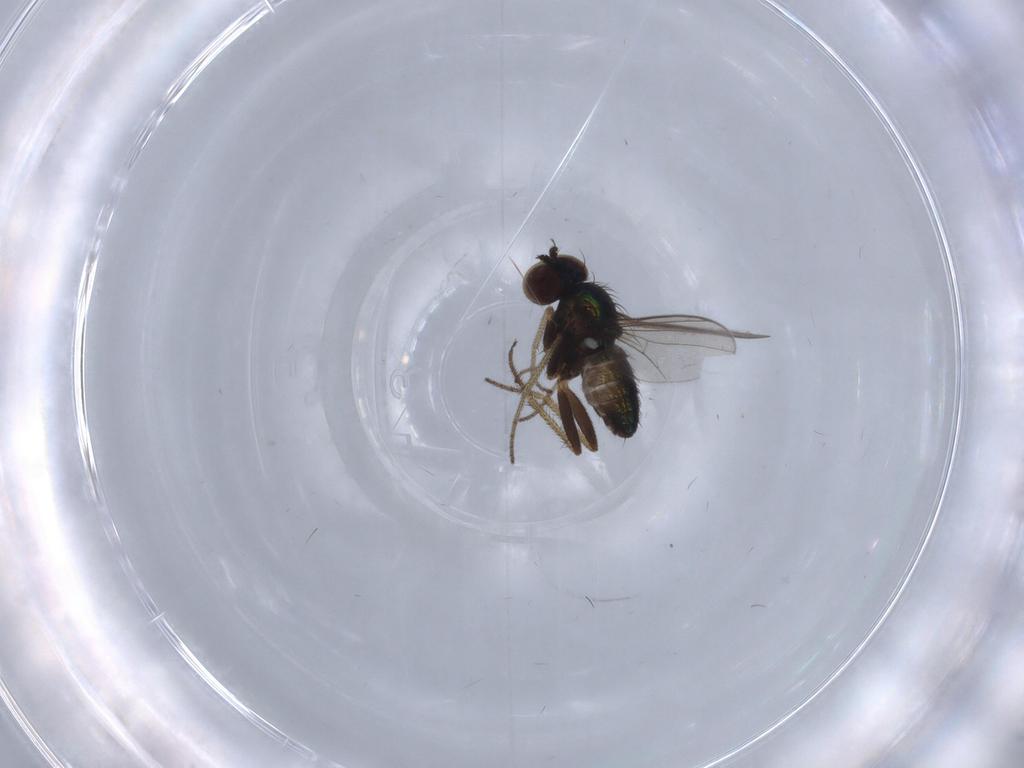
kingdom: Animalia
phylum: Arthropoda
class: Insecta
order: Diptera
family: Dolichopodidae
